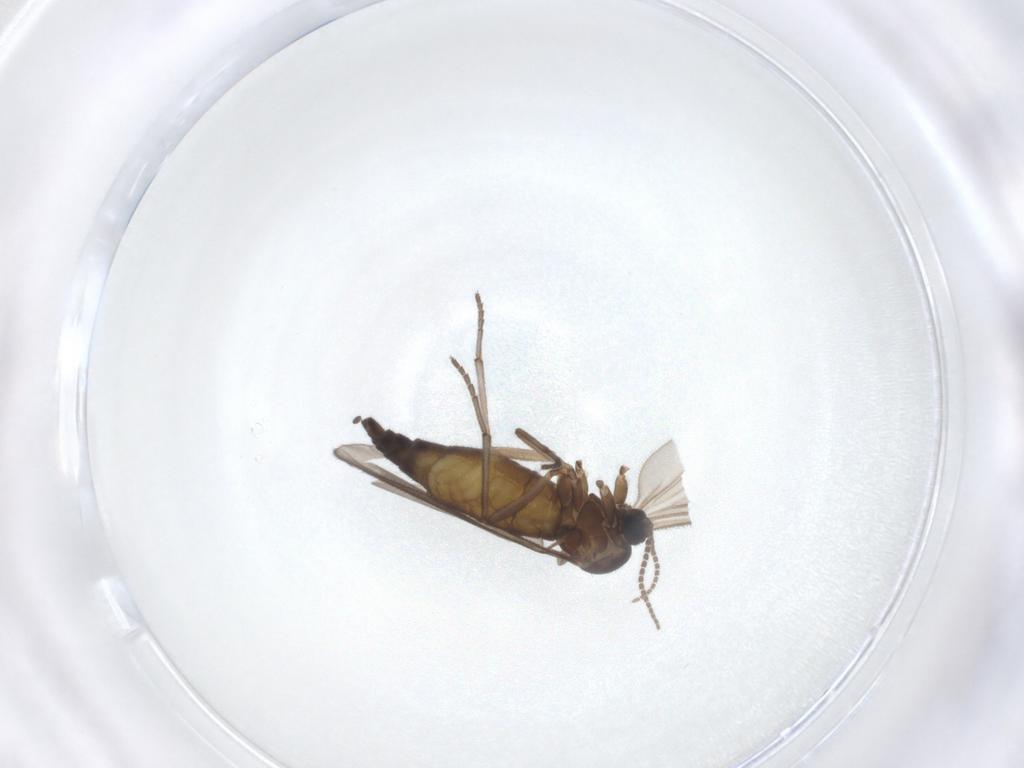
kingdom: Animalia
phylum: Arthropoda
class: Insecta
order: Diptera
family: Sciaridae
